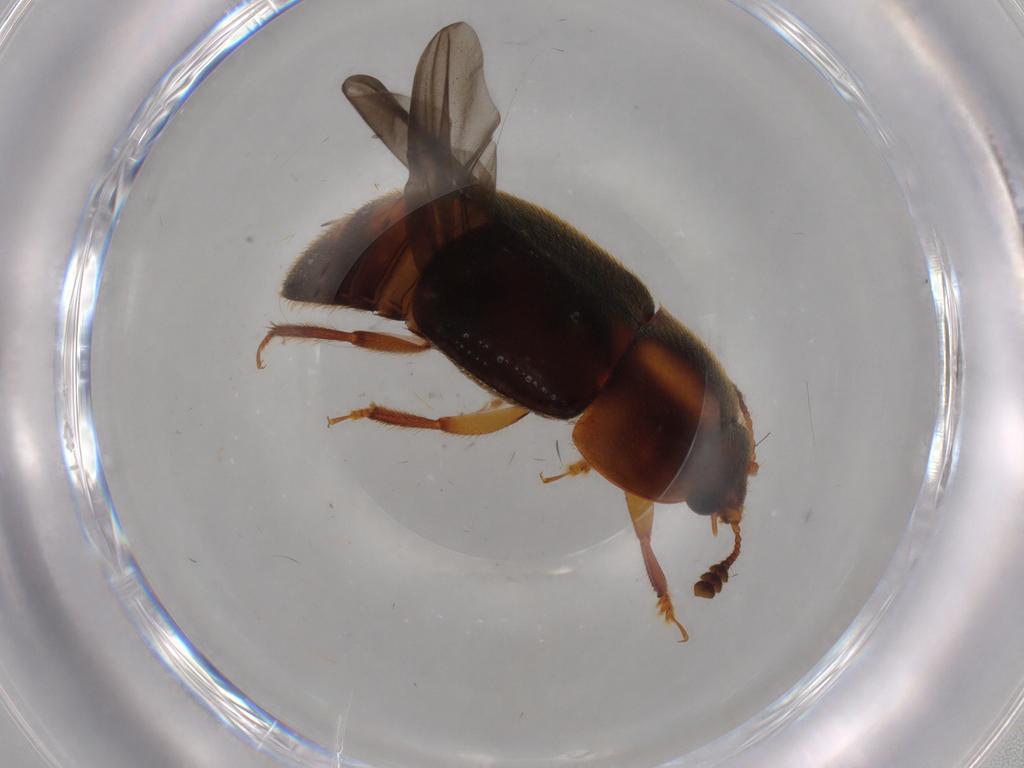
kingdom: Animalia
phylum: Arthropoda
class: Insecta
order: Coleoptera
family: Nitidulidae
